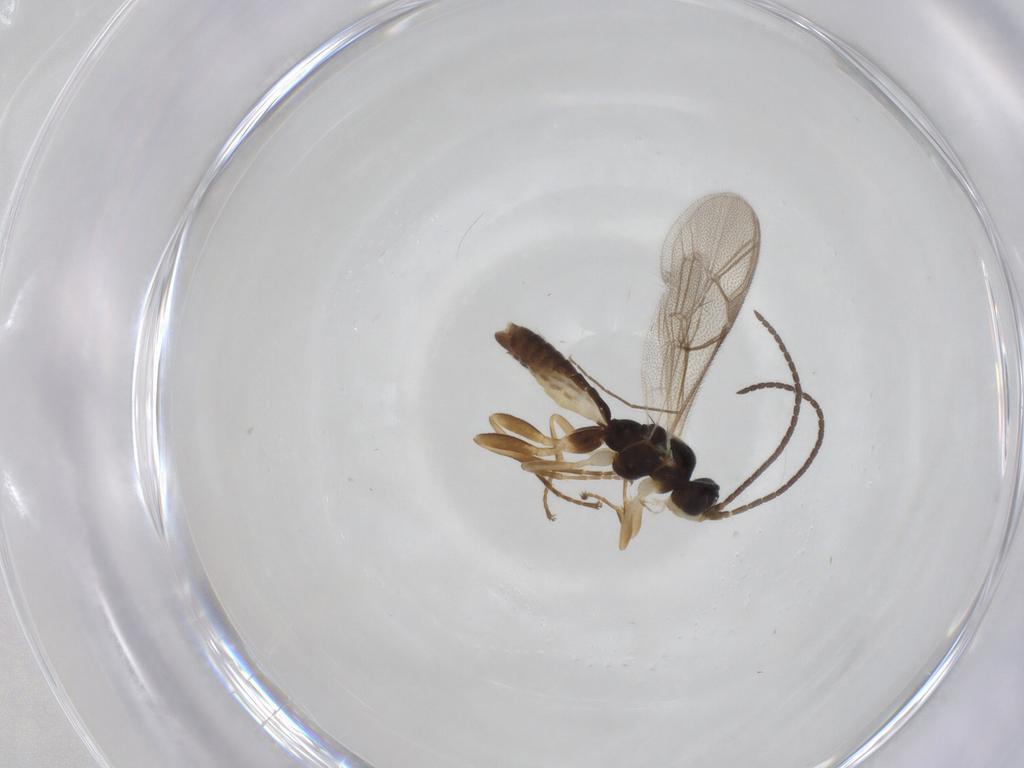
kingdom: Animalia
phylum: Arthropoda
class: Insecta
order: Hymenoptera
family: Ichneumonidae
